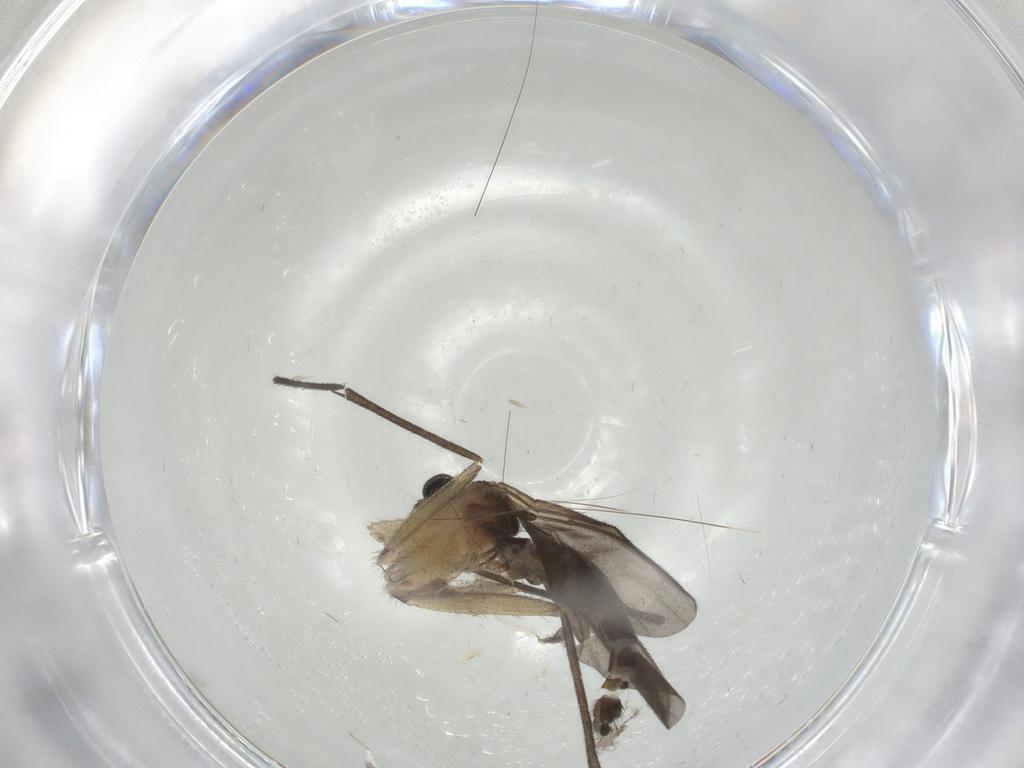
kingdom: Animalia
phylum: Arthropoda
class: Insecta
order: Diptera
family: Sciaridae
